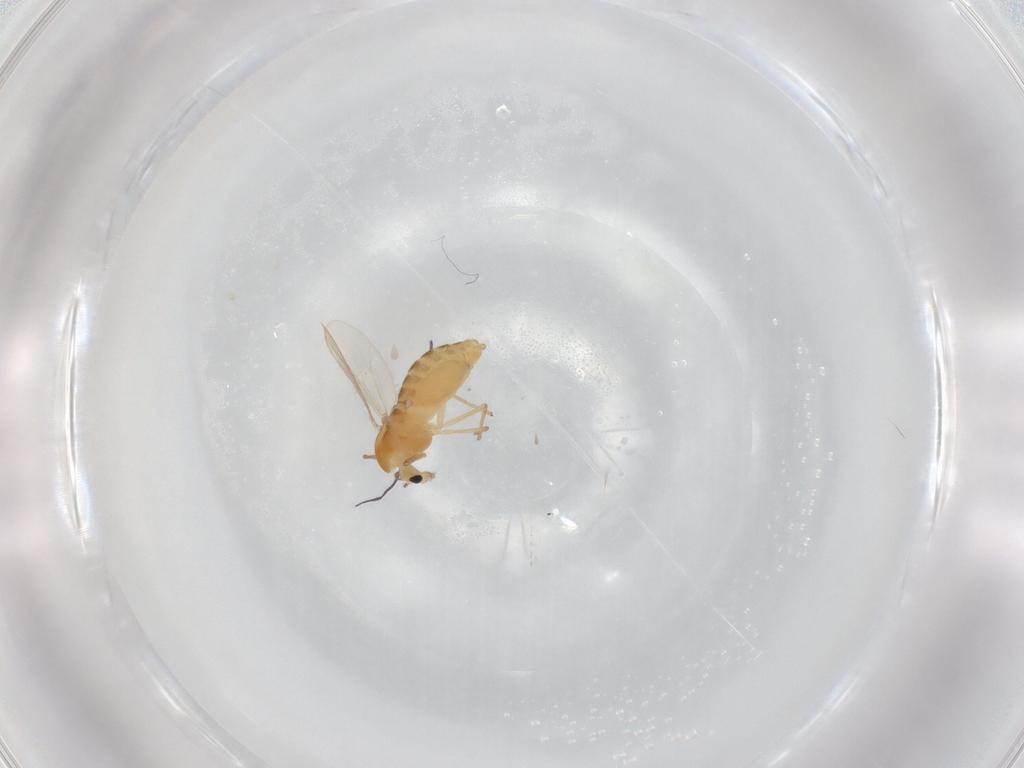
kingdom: Animalia
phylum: Arthropoda
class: Insecta
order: Diptera
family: Chironomidae
